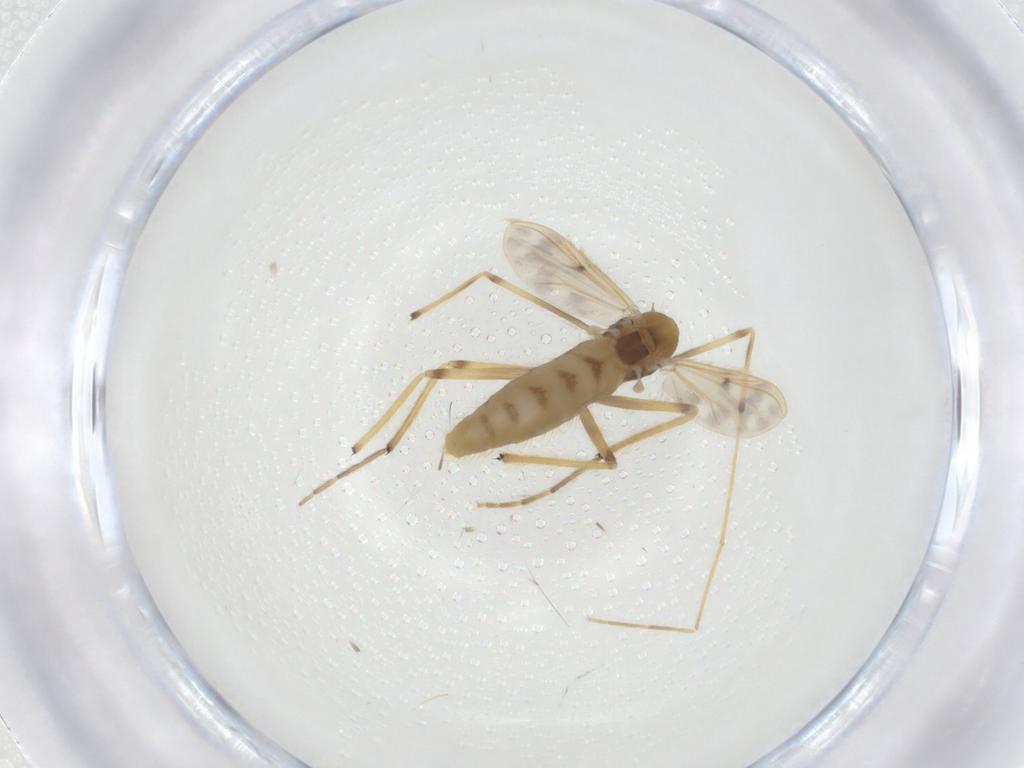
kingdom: Animalia
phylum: Arthropoda
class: Insecta
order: Diptera
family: Chironomidae
